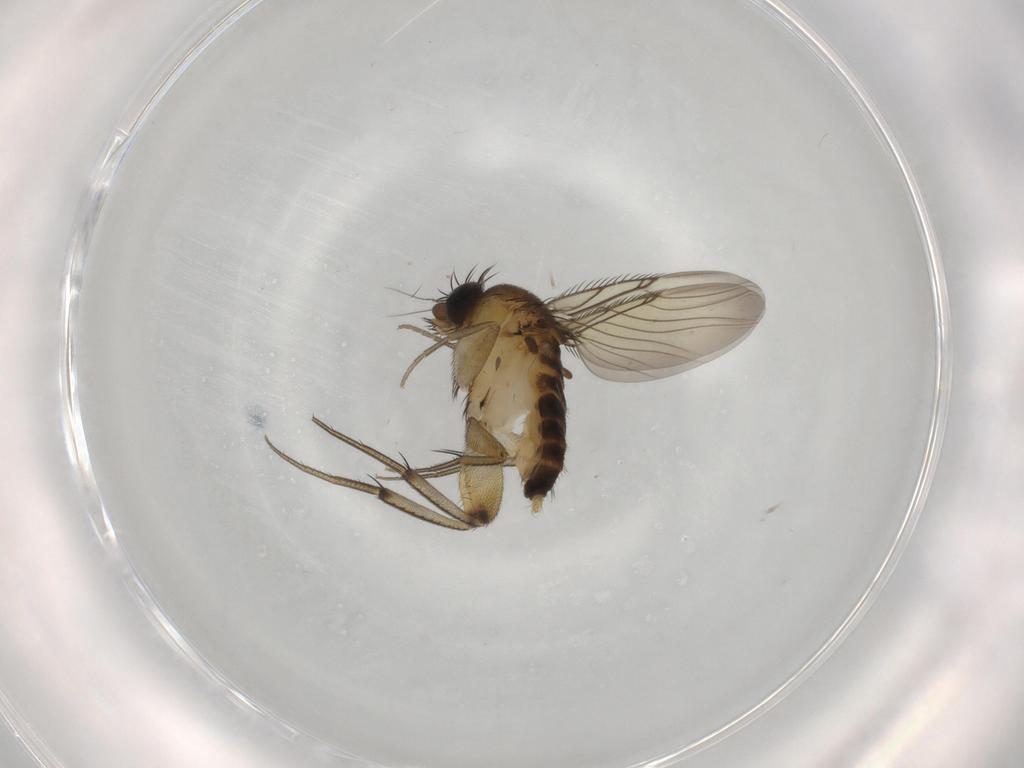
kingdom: Animalia
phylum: Arthropoda
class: Insecta
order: Diptera
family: Phoridae
